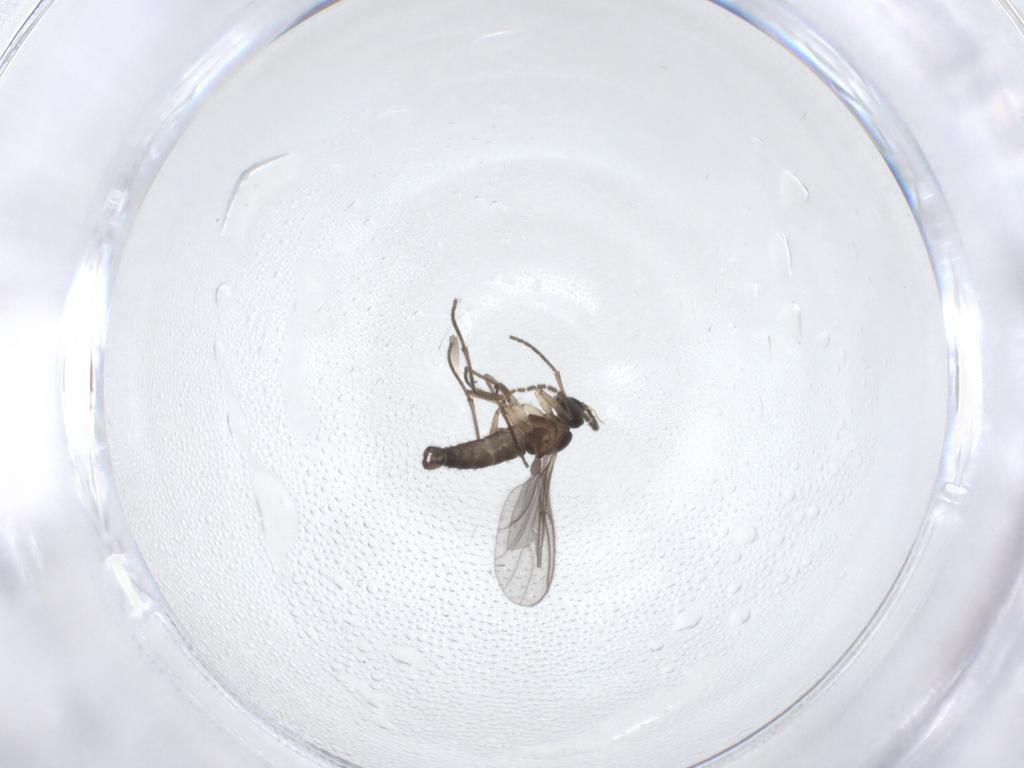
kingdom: Animalia
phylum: Arthropoda
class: Insecta
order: Diptera
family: Sciaridae
